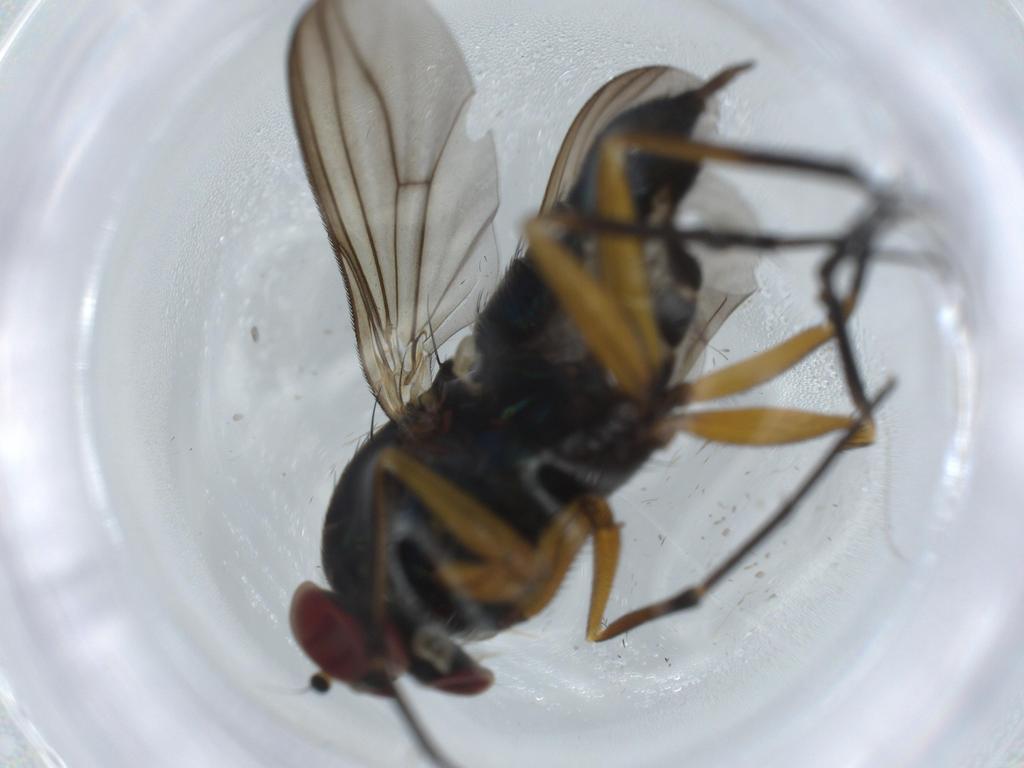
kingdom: Animalia
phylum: Arthropoda
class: Insecta
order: Diptera
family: Dolichopodidae
